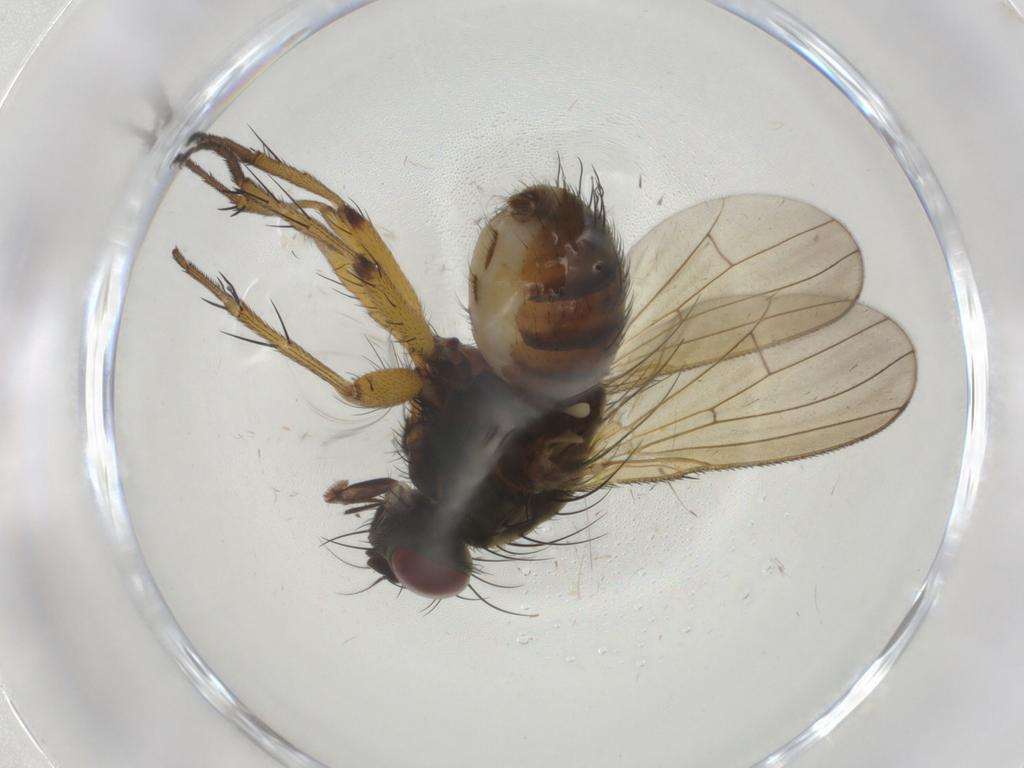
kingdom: Animalia
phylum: Arthropoda
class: Insecta
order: Diptera
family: Muscidae
